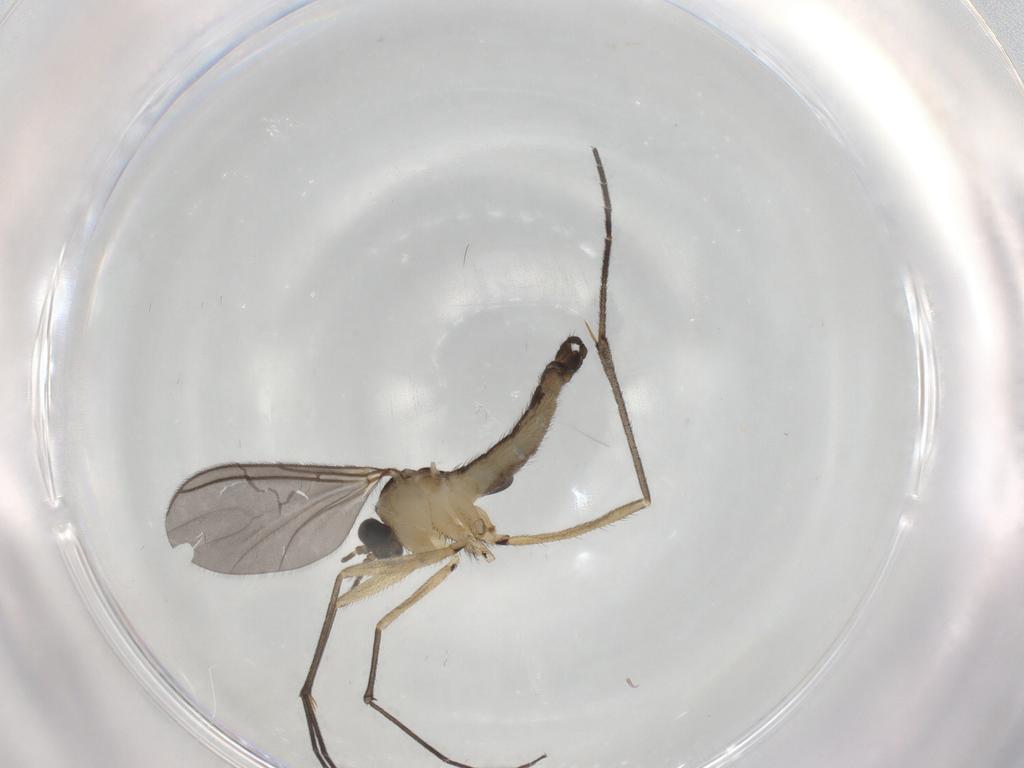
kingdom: Animalia
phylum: Arthropoda
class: Insecta
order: Diptera
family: Sciaridae
